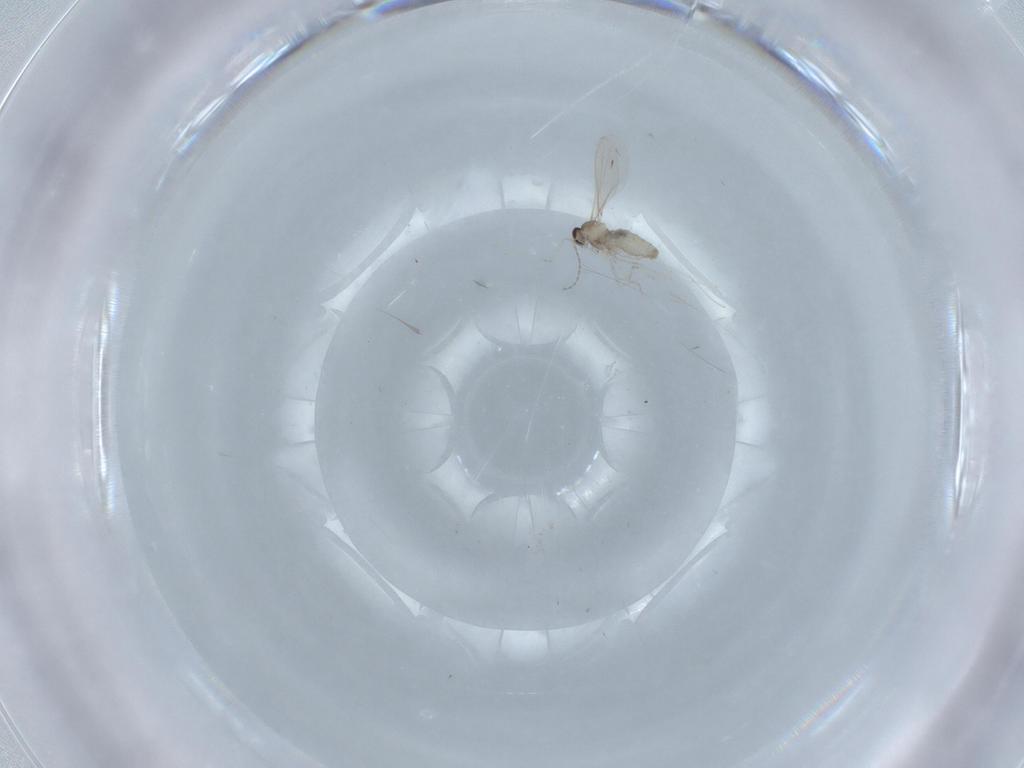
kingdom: Animalia
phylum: Arthropoda
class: Insecta
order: Diptera
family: Cecidomyiidae
